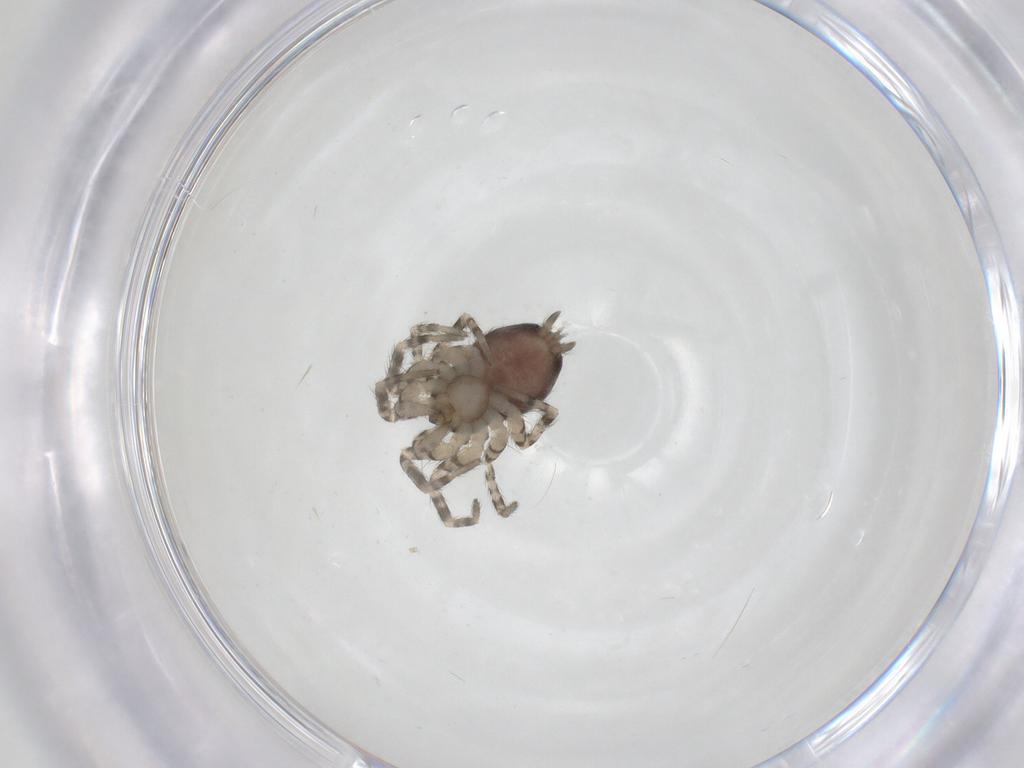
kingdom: Animalia
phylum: Arthropoda
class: Arachnida
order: Araneae
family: Oecobiidae
